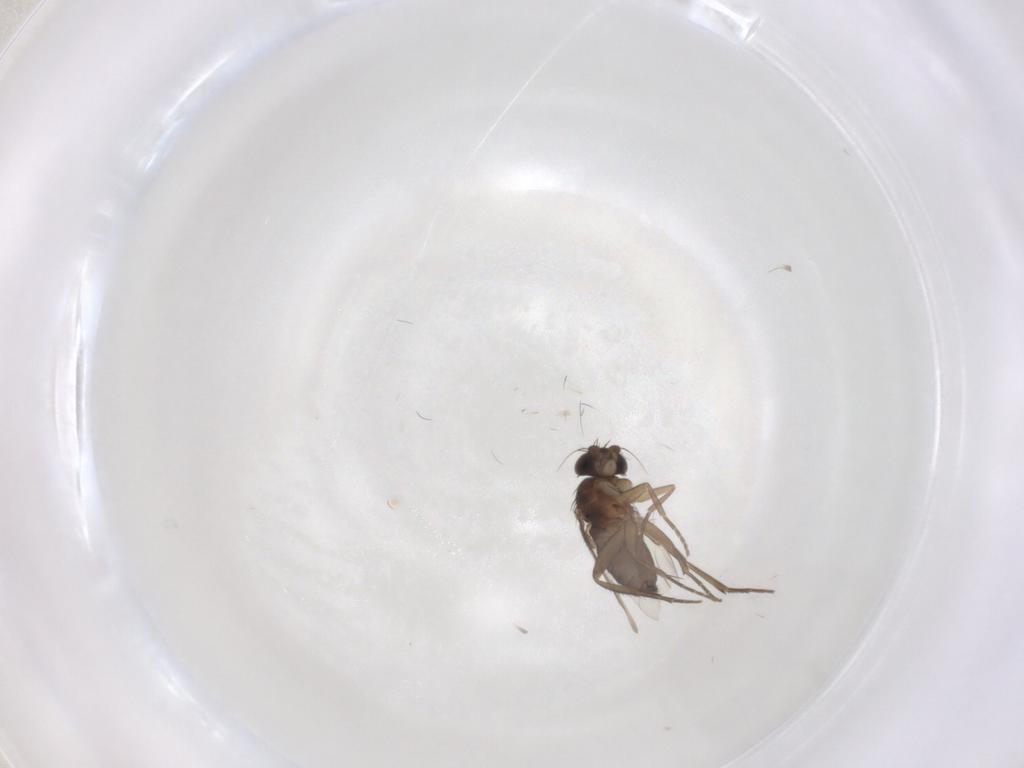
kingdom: Animalia
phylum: Arthropoda
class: Insecta
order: Diptera
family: Phoridae
